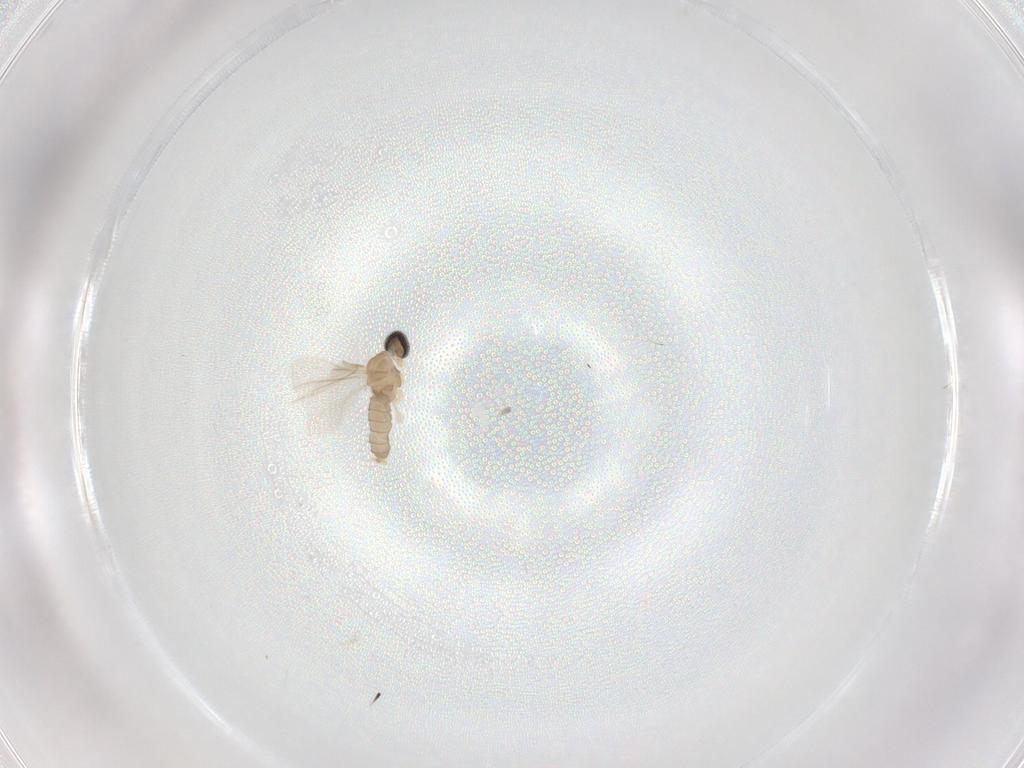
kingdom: Animalia
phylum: Arthropoda
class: Insecta
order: Diptera
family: Cecidomyiidae
